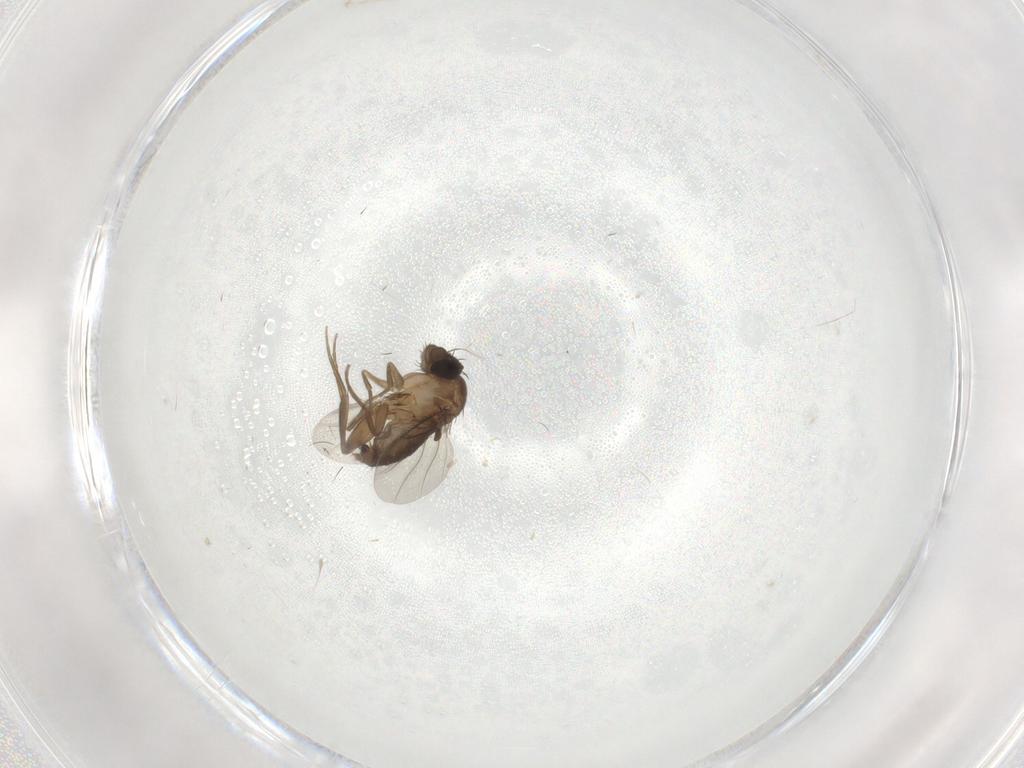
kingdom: Animalia
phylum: Arthropoda
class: Insecta
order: Diptera
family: Phoridae
